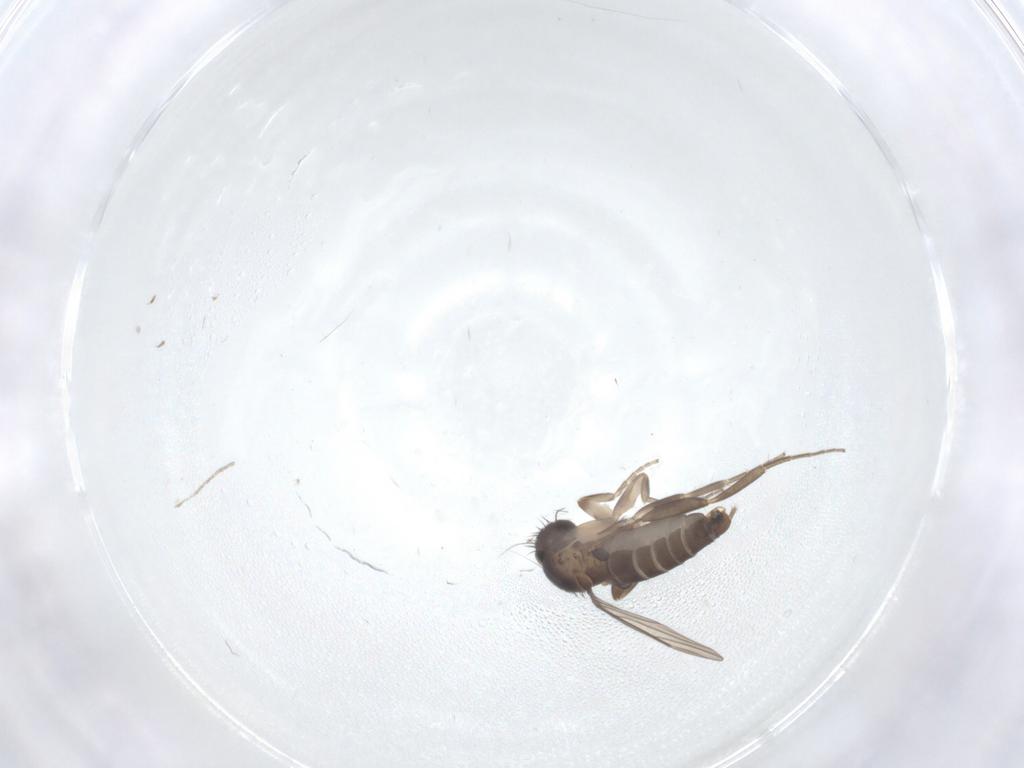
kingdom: Animalia
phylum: Arthropoda
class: Insecta
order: Diptera
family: Phoridae
